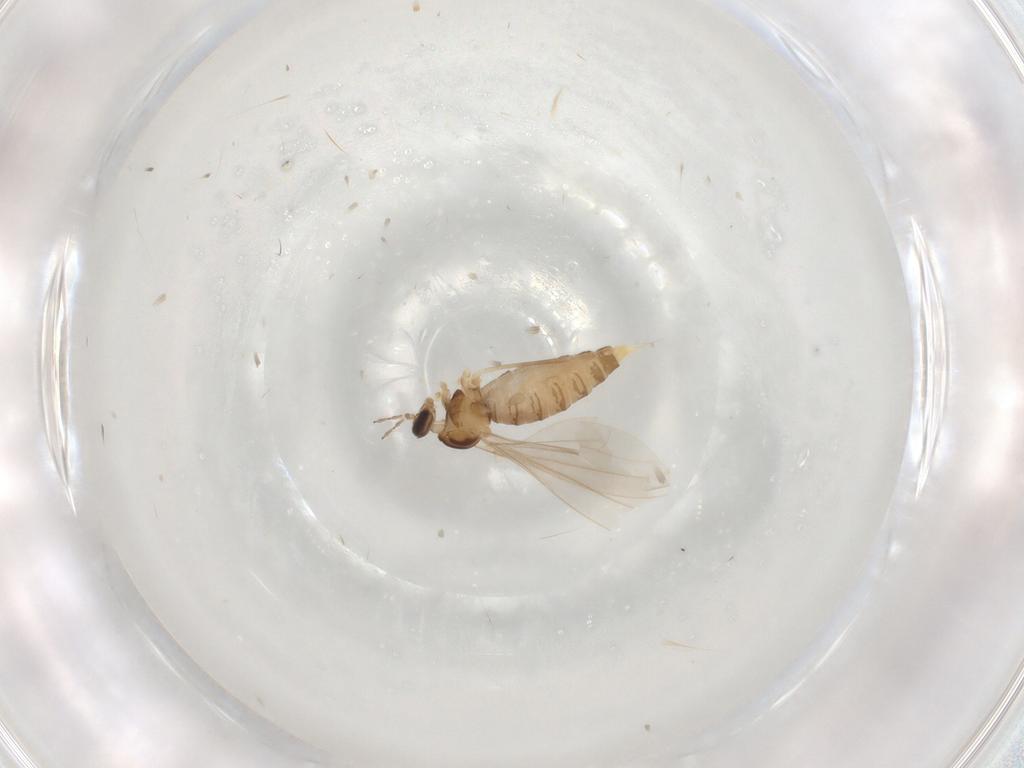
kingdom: Animalia
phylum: Arthropoda
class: Insecta
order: Diptera
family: Cecidomyiidae
